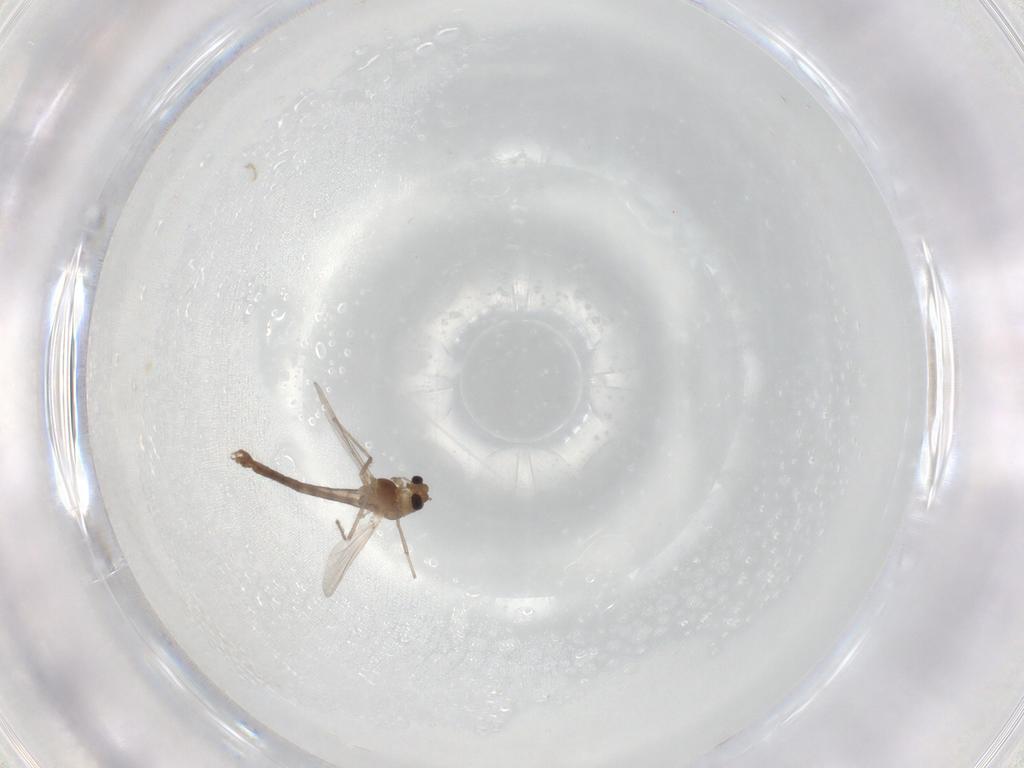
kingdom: Animalia
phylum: Arthropoda
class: Insecta
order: Diptera
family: Chironomidae
